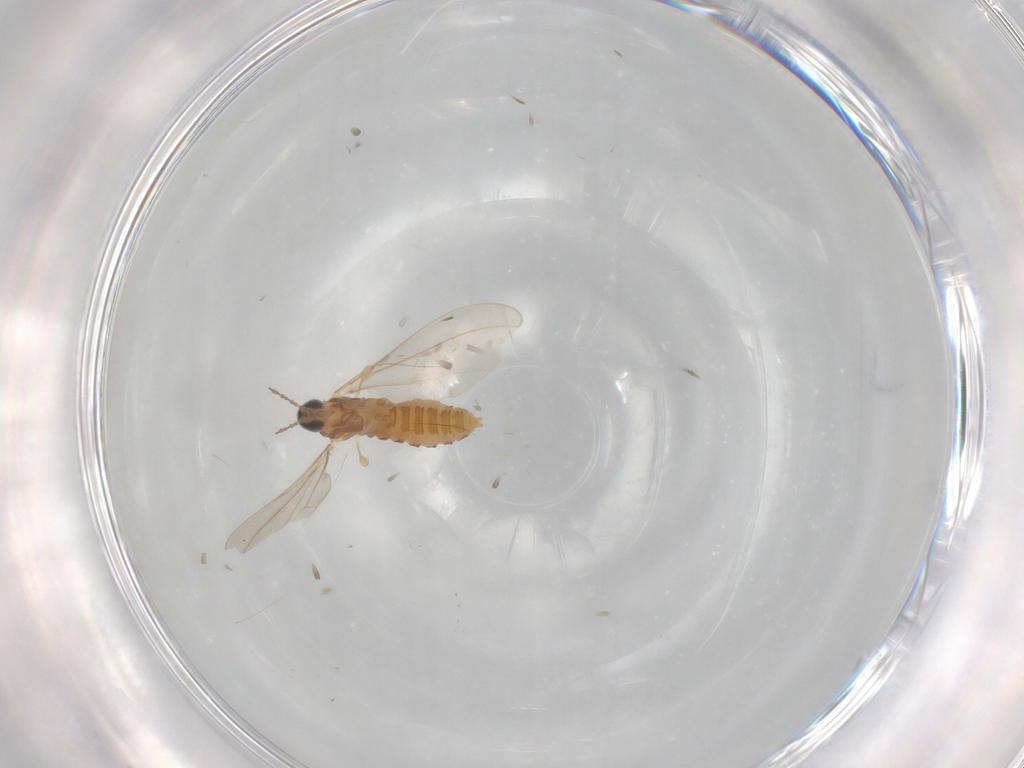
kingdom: Animalia
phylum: Arthropoda
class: Insecta
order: Diptera
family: Cecidomyiidae
